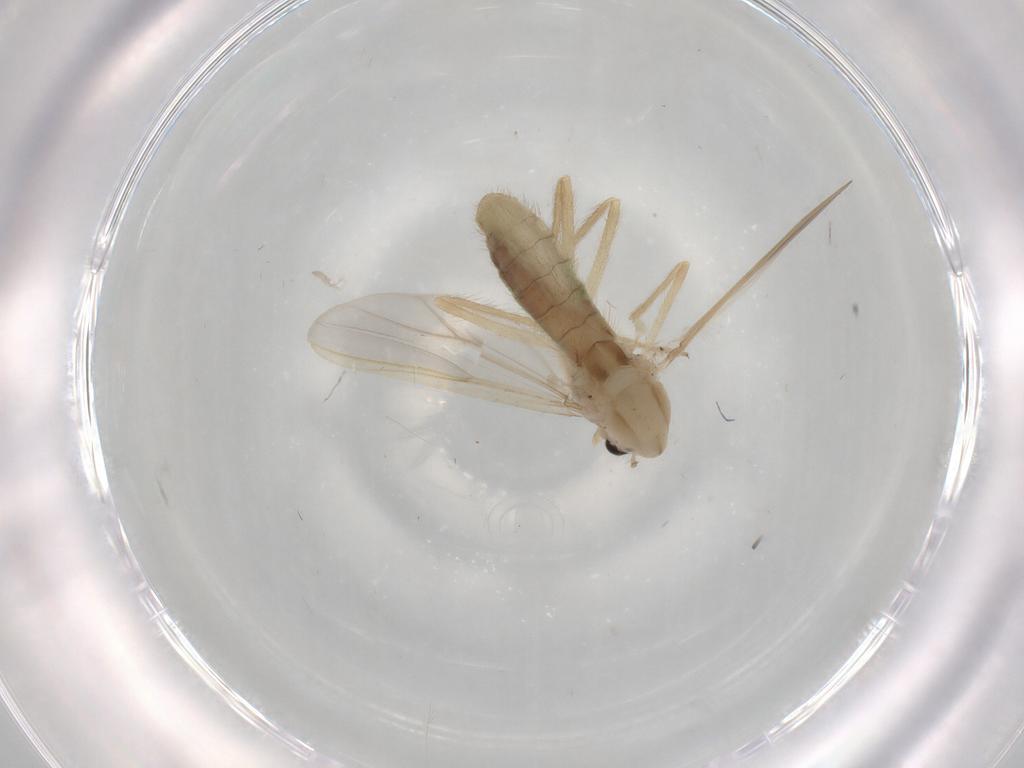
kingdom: Animalia
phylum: Arthropoda
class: Insecta
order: Diptera
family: Chironomidae
